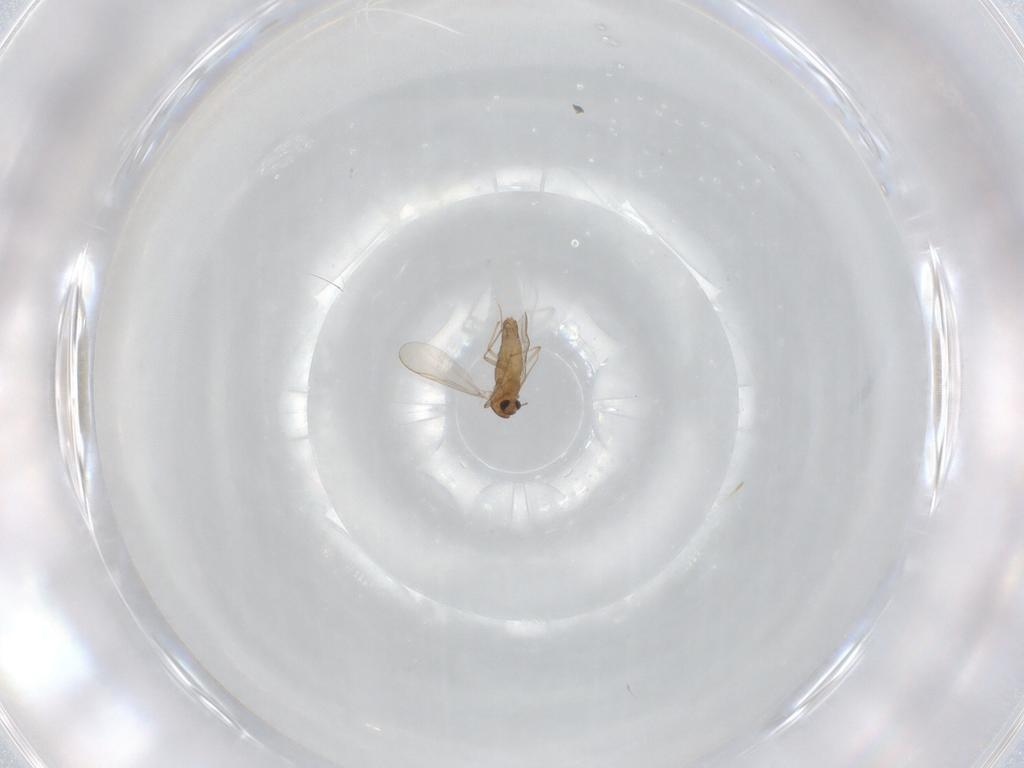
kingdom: Animalia
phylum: Arthropoda
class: Insecta
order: Diptera
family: Chironomidae
